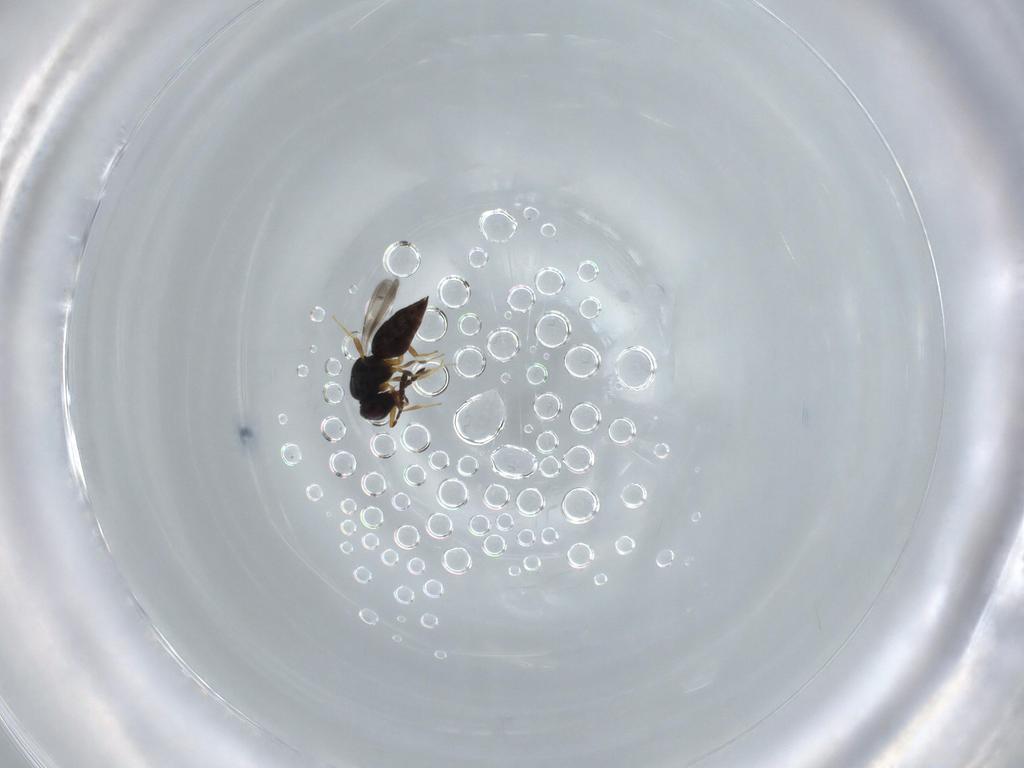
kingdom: Animalia
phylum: Arthropoda
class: Insecta
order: Hymenoptera
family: Ceraphronidae
